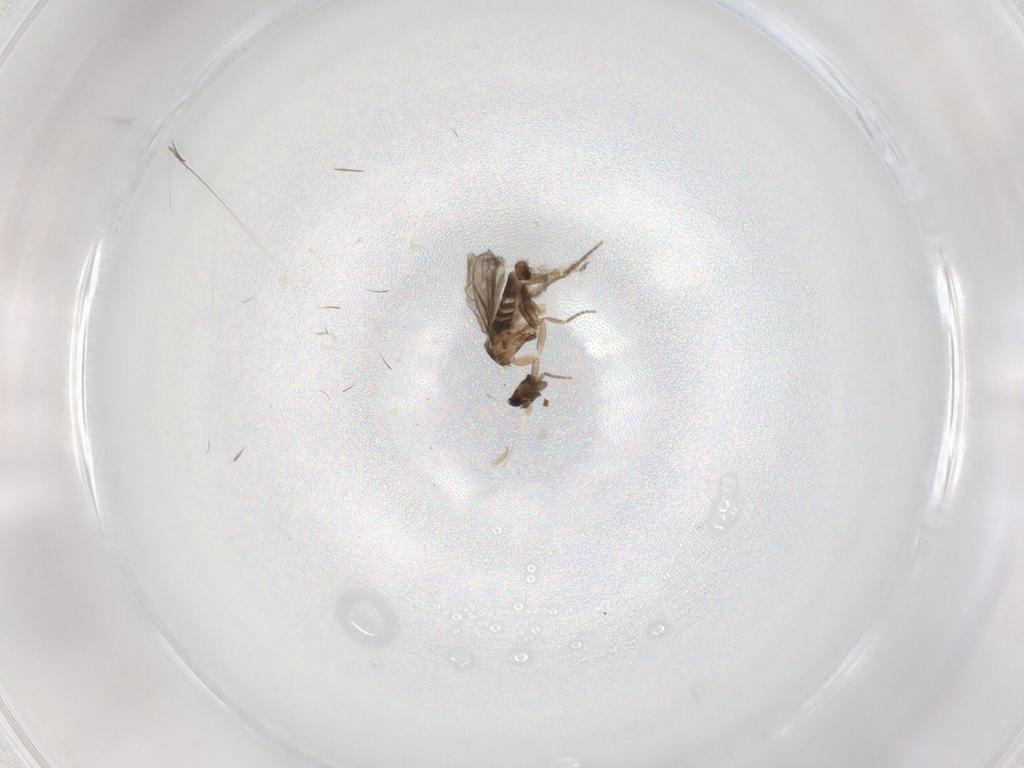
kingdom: Animalia
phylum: Arthropoda
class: Insecta
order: Diptera
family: Chironomidae
